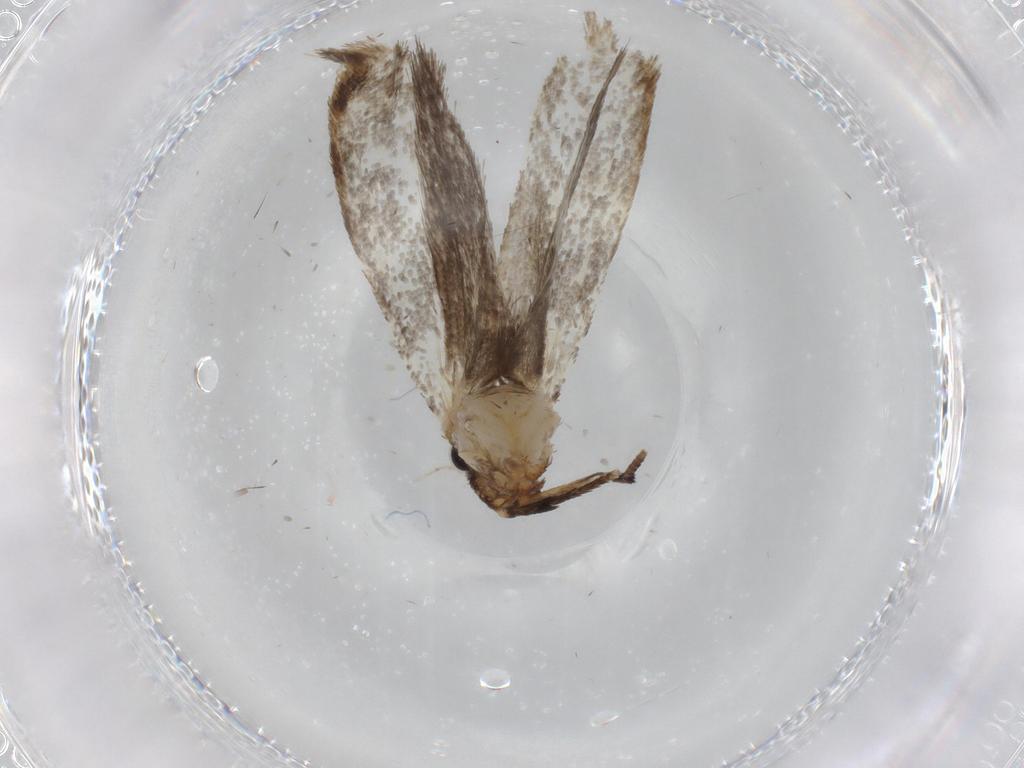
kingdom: Animalia
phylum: Arthropoda
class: Insecta
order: Lepidoptera
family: Tineidae
